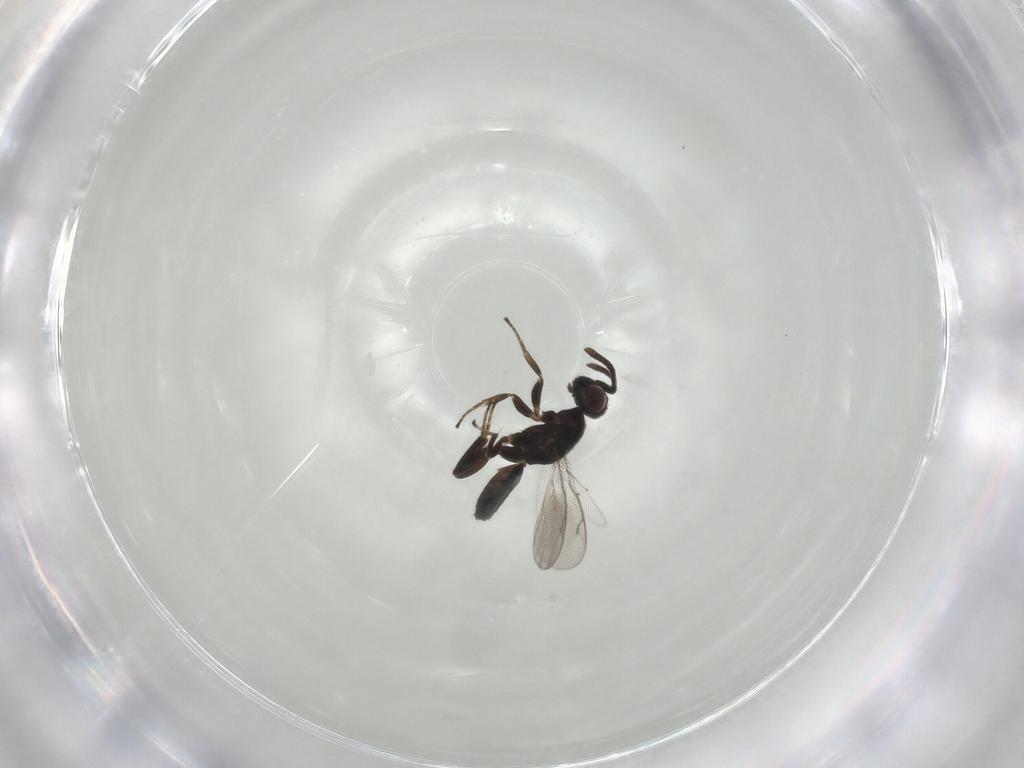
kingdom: Animalia
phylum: Arthropoda
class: Insecta
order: Hymenoptera
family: Eupelmidae
